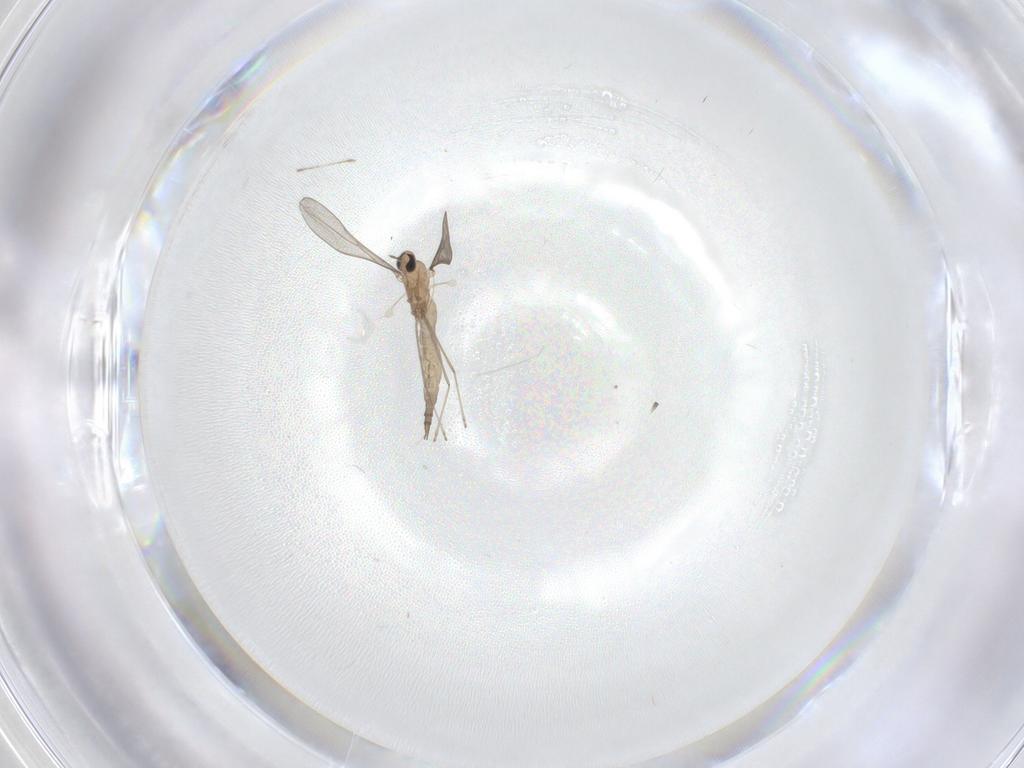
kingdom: Animalia
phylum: Arthropoda
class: Insecta
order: Diptera
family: Cecidomyiidae
